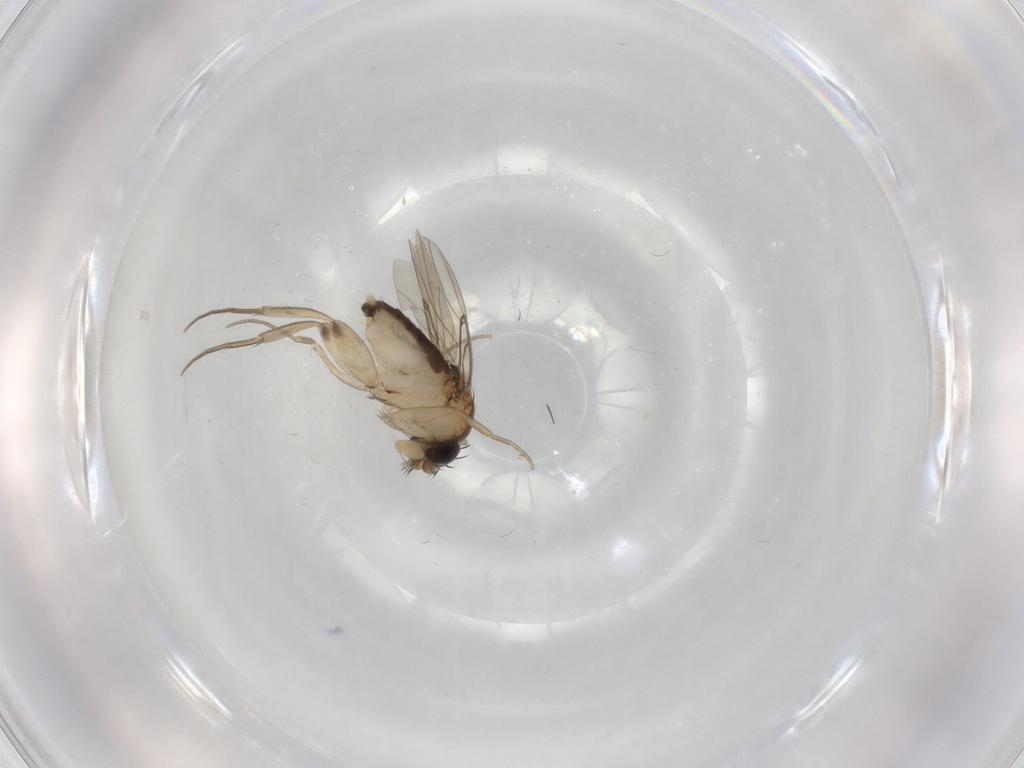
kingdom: Animalia
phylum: Arthropoda
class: Insecta
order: Diptera
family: Phoridae
